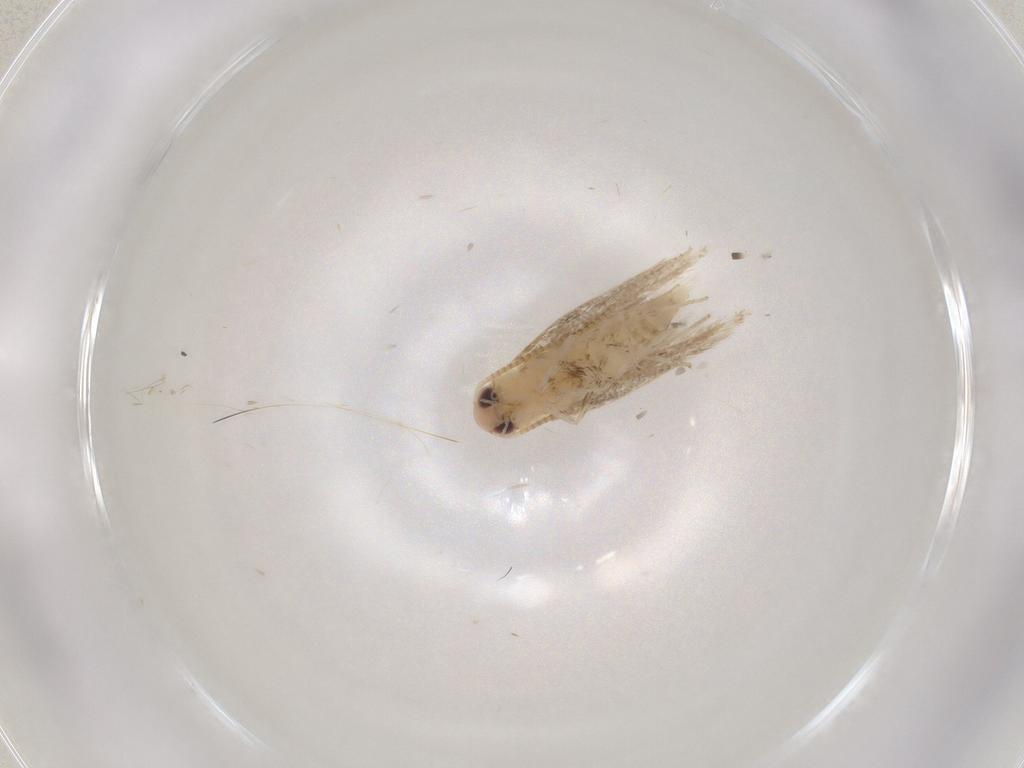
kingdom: Animalia
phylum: Arthropoda
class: Insecta
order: Lepidoptera
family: Gracillariidae
